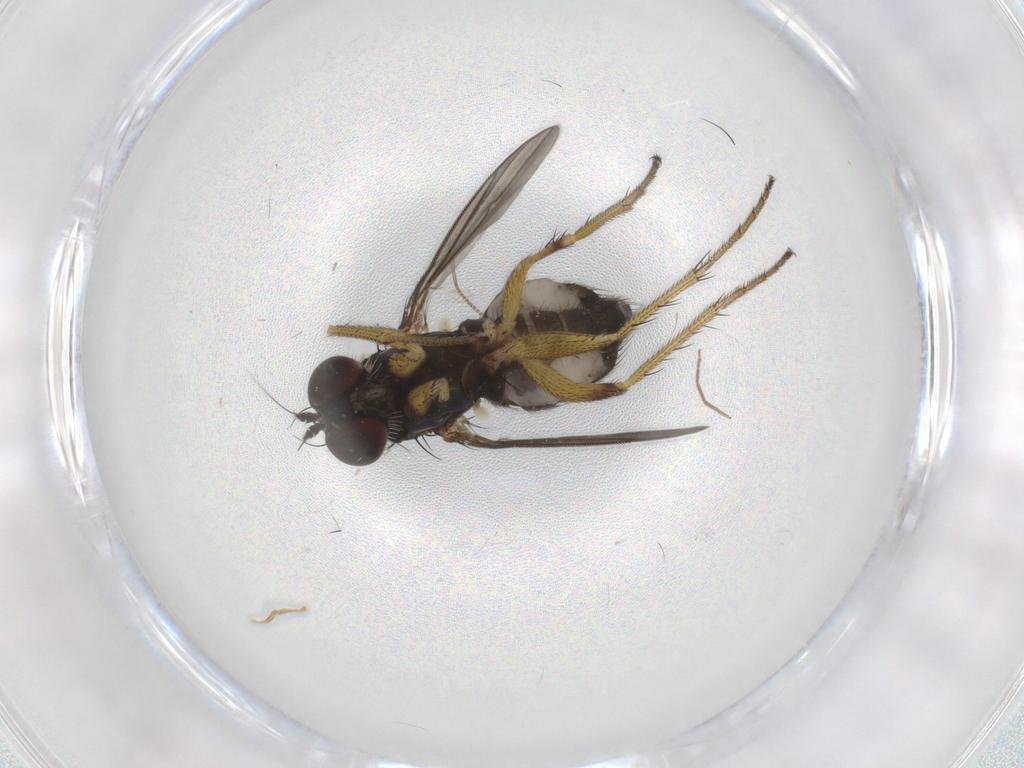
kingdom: Animalia
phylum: Arthropoda
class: Insecta
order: Diptera
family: Dolichopodidae
